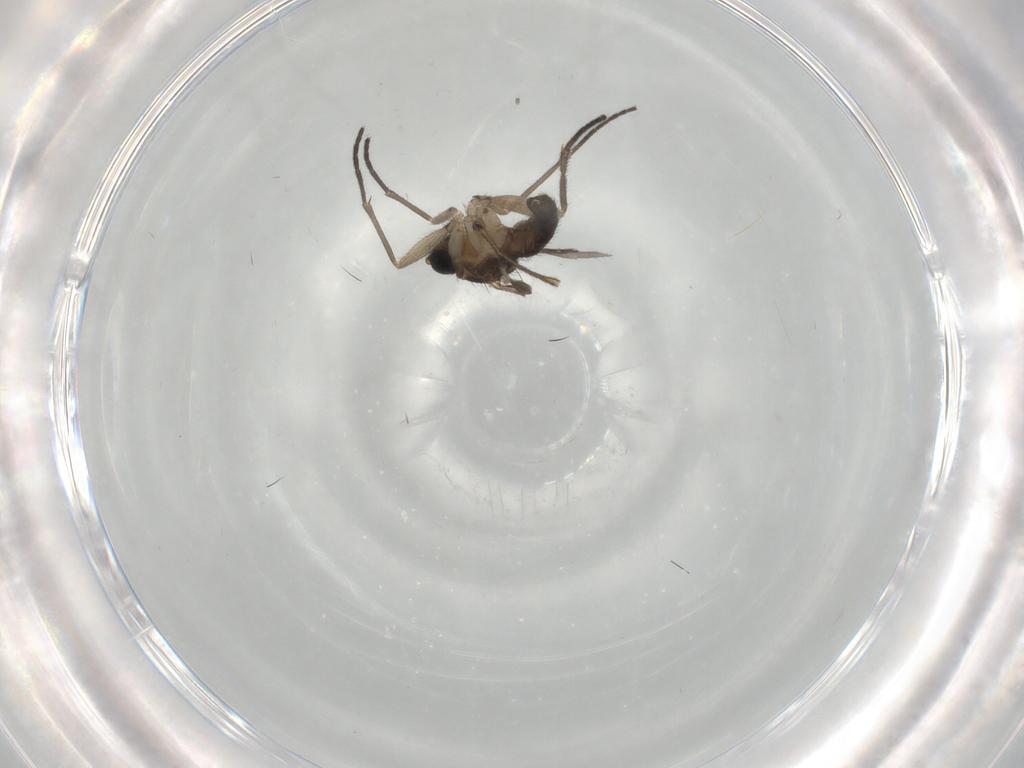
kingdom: Animalia
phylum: Arthropoda
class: Insecta
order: Diptera
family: Sciaridae
